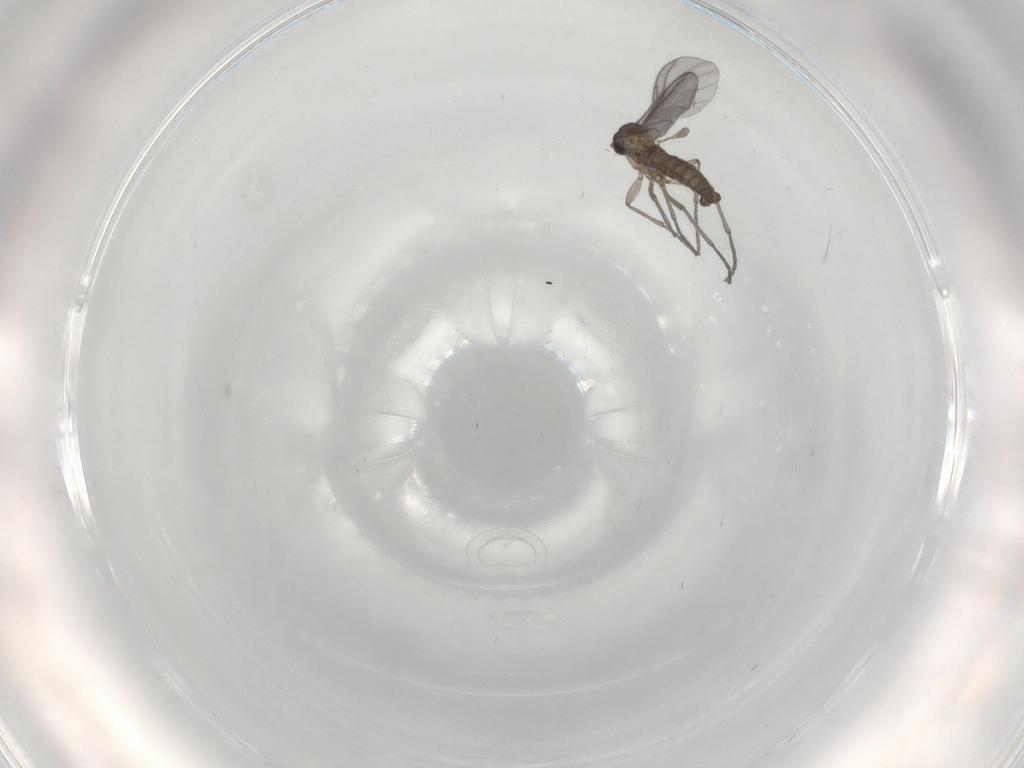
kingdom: Animalia
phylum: Arthropoda
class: Insecta
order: Diptera
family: Sciaridae
